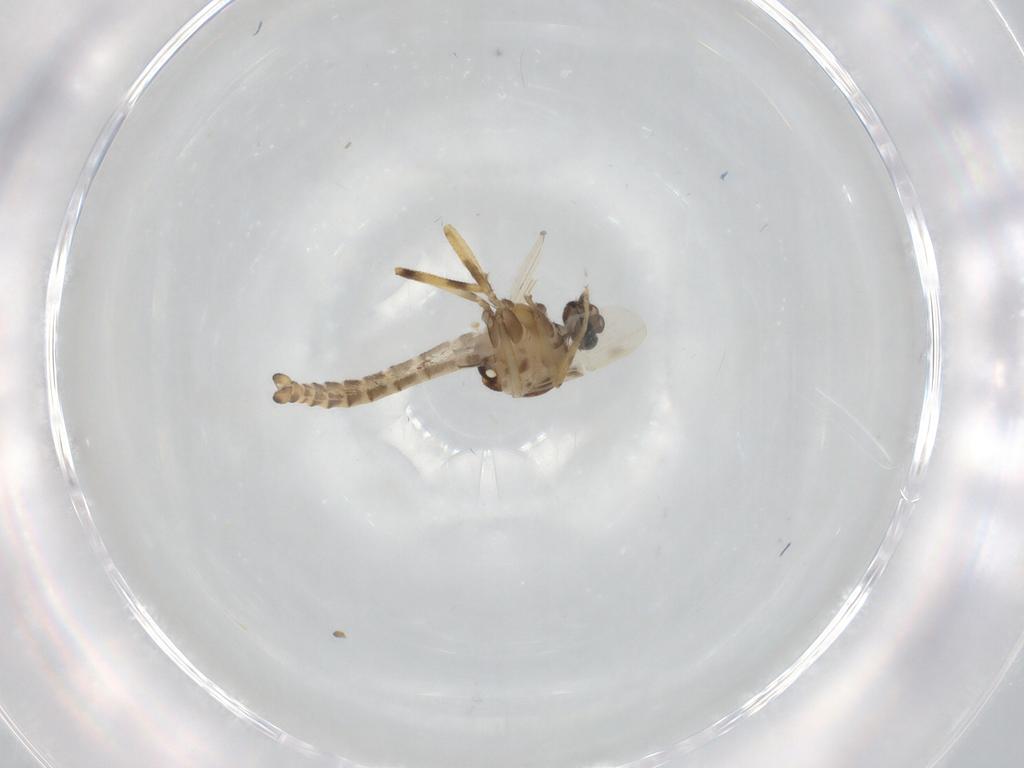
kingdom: Animalia
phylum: Arthropoda
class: Insecta
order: Diptera
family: Ceratopogonidae
